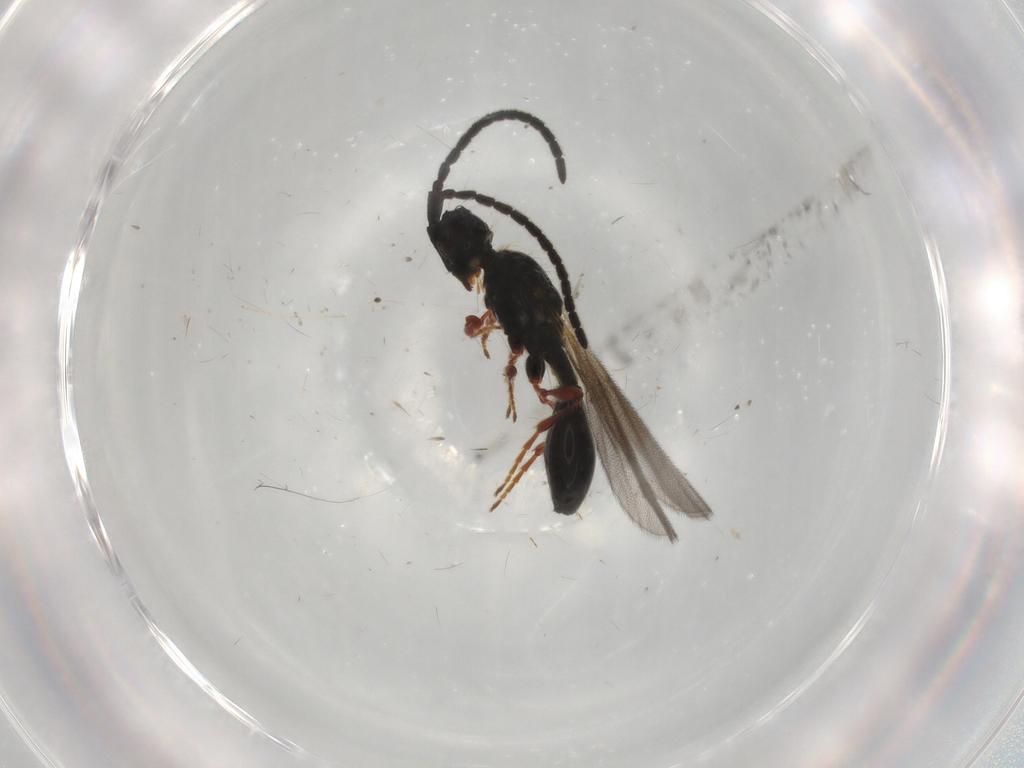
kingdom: Animalia
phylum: Arthropoda
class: Insecta
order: Hymenoptera
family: Diapriidae
